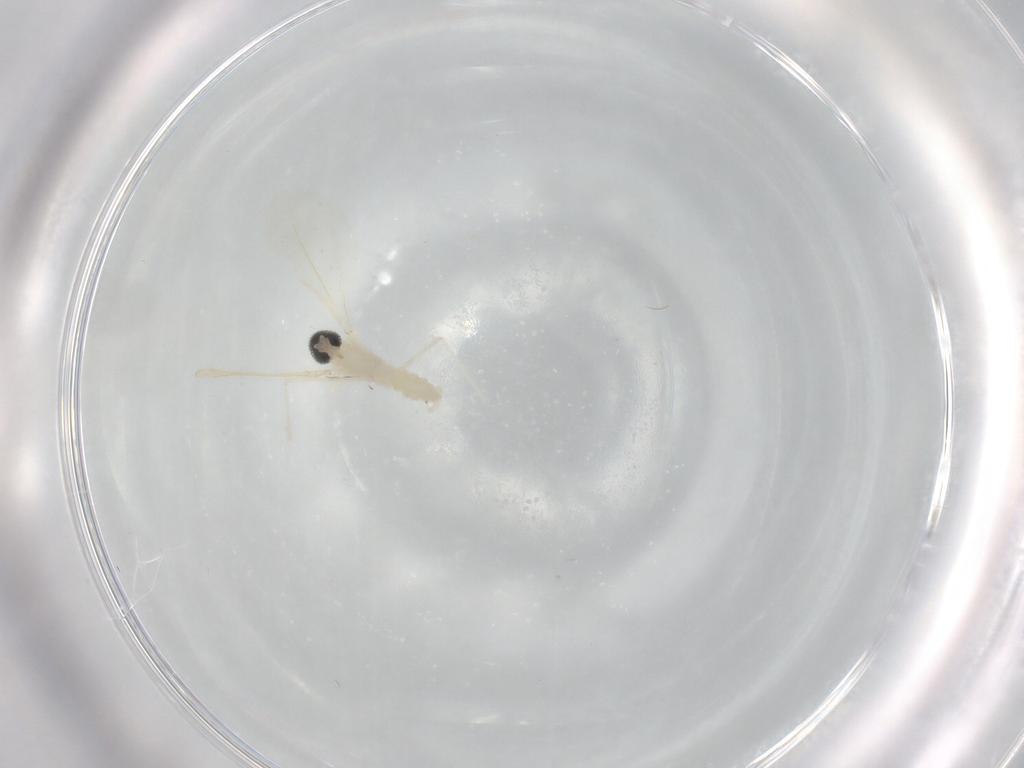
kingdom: Animalia
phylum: Arthropoda
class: Insecta
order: Diptera
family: Cecidomyiidae
